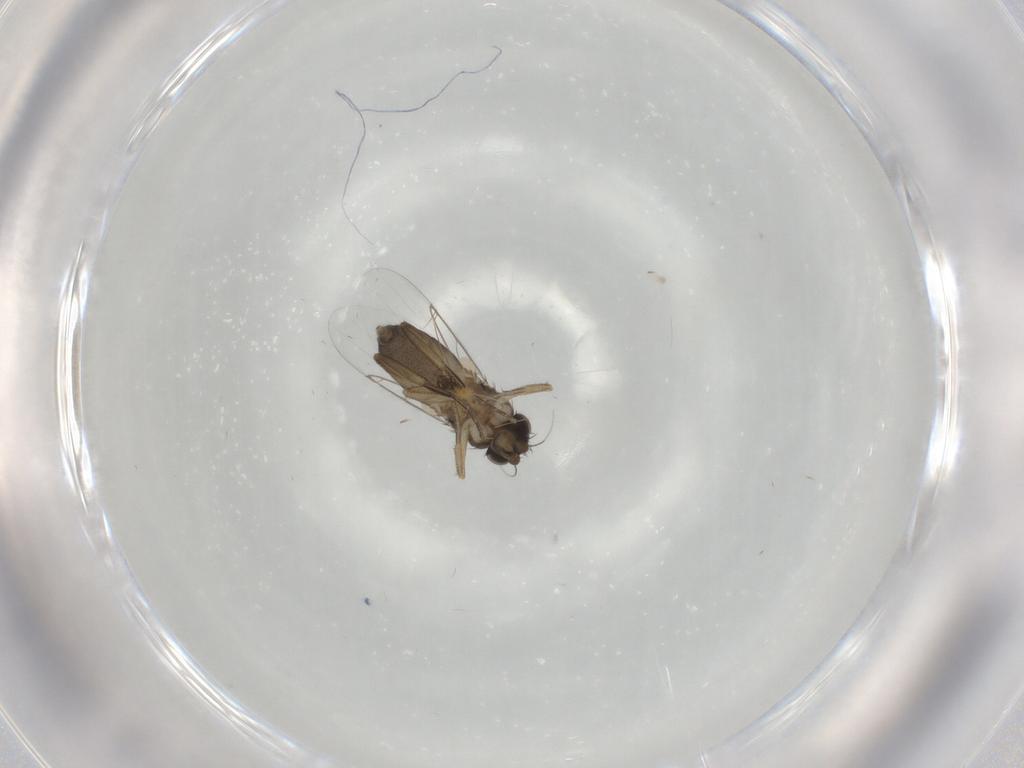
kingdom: Animalia
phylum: Arthropoda
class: Insecta
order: Diptera
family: Phoridae
